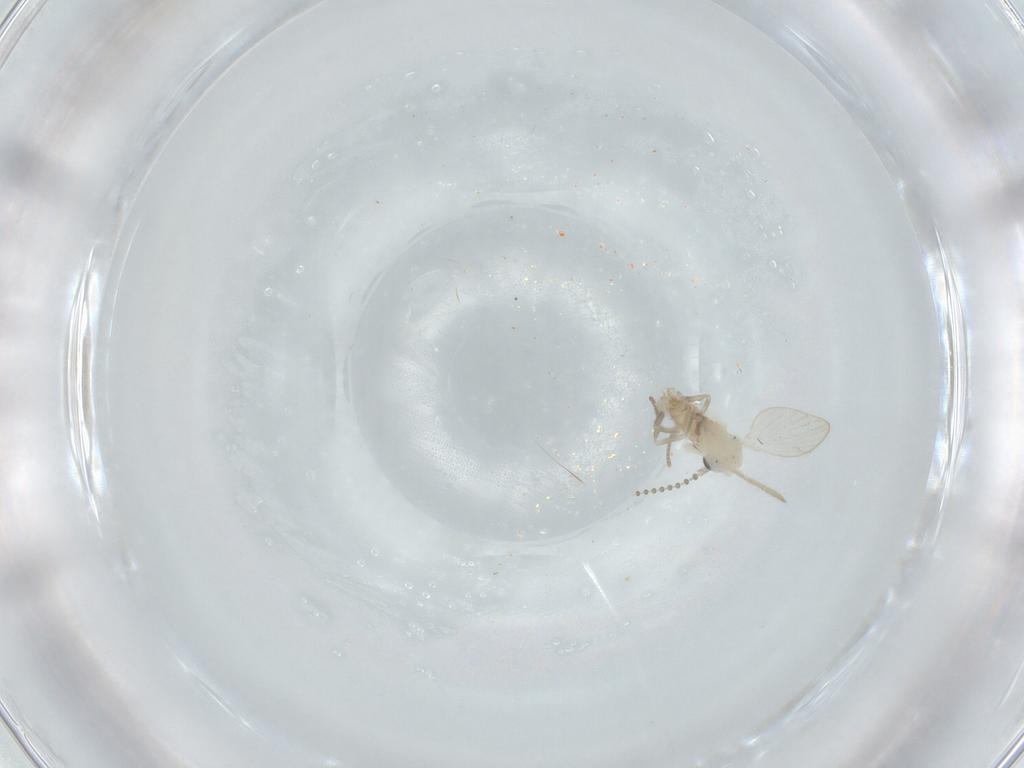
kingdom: Animalia
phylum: Arthropoda
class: Insecta
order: Diptera
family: Psychodidae
